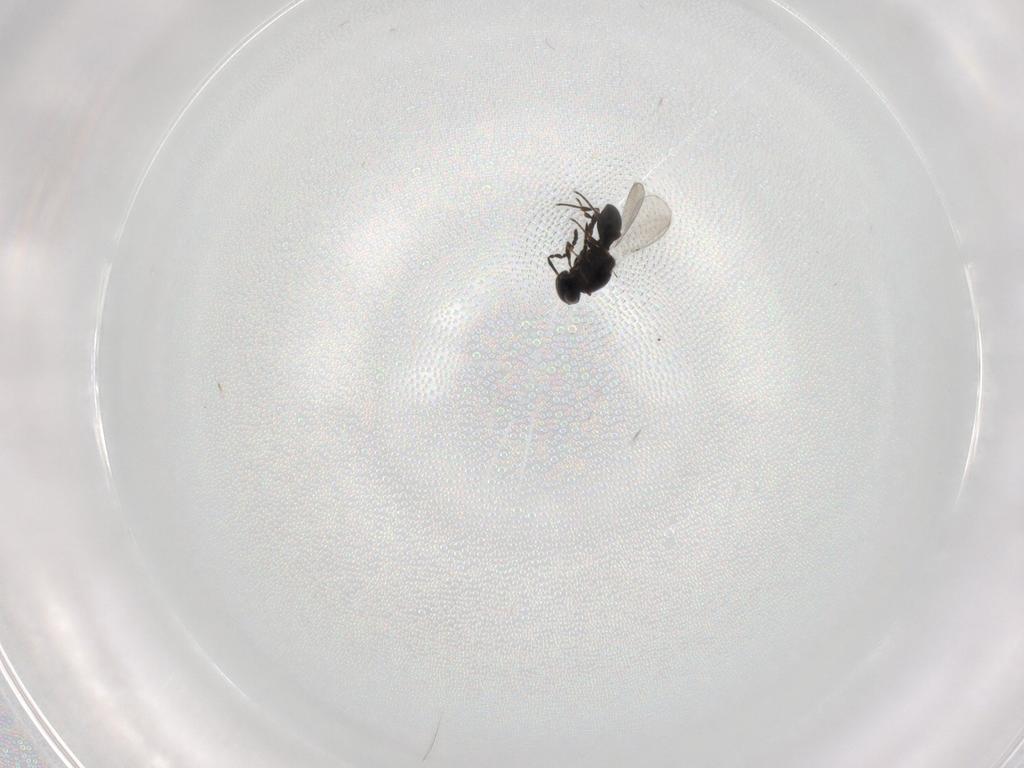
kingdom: Animalia
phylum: Arthropoda
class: Insecta
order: Hymenoptera
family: Platygastridae
